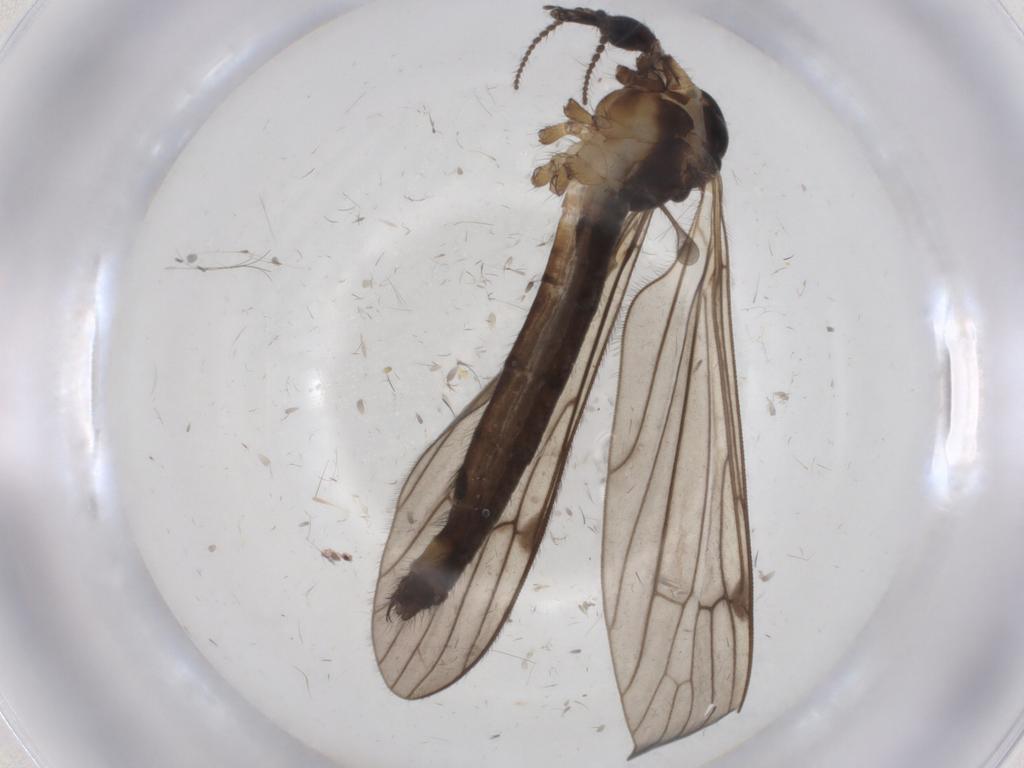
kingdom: Animalia
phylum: Arthropoda
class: Insecta
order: Diptera
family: Limoniidae
